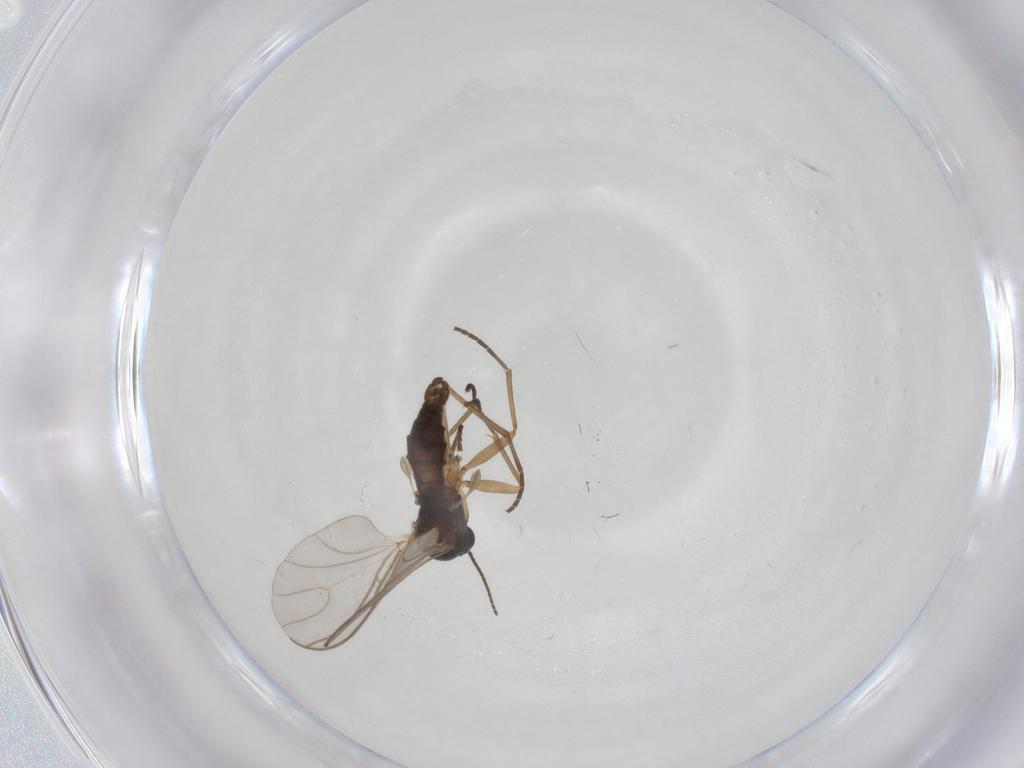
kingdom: Animalia
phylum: Arthropoda
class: Insecta
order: Diptera
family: Sciaridae
